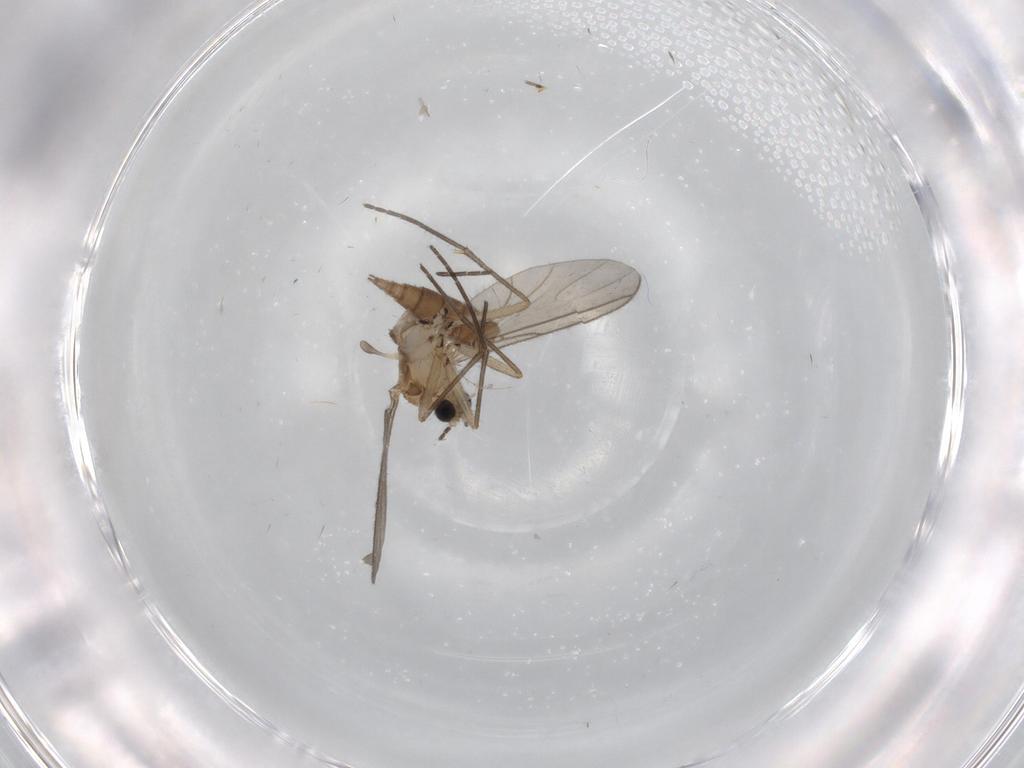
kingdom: Animalia
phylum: Arthropoda
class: Insecta
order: Diptera
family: Sciaridae
